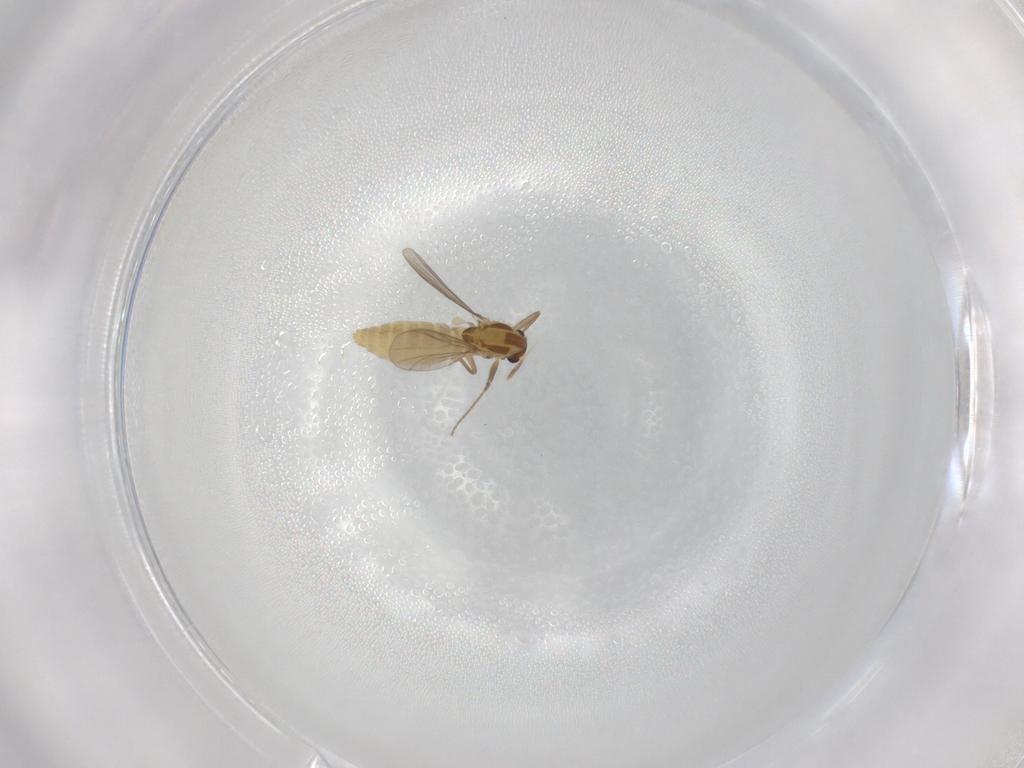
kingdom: Animalia
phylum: Arthropoda
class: Insecta
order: Diptera
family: Chironomidae
